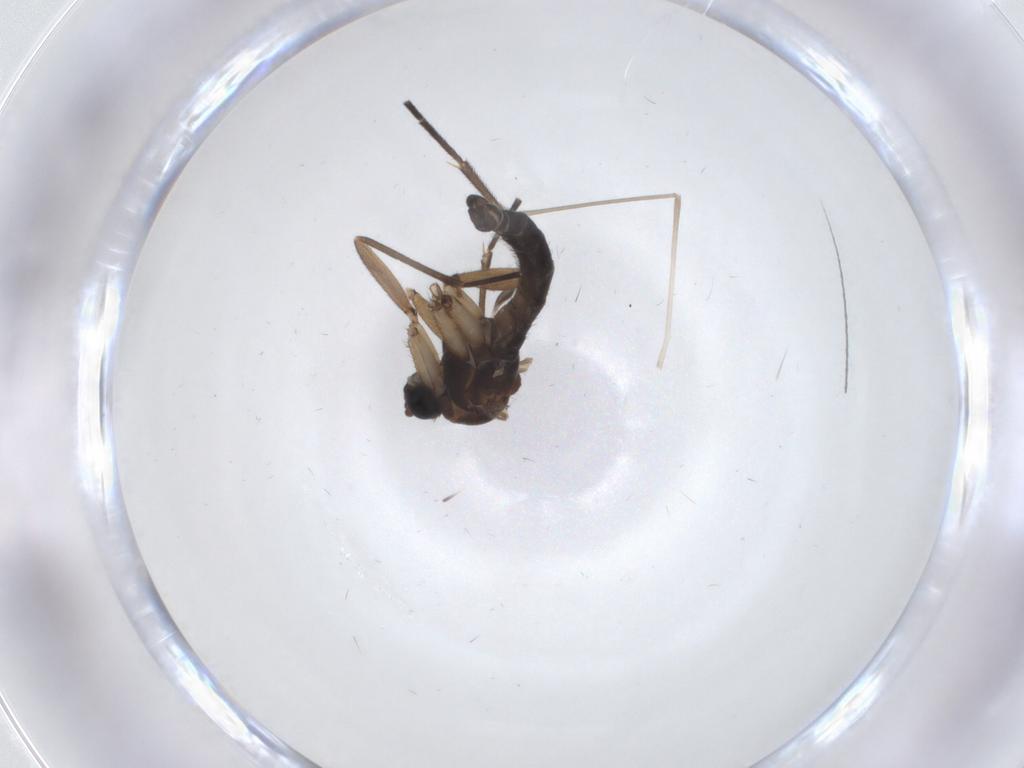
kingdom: Animalia
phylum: Arthropoda
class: Insecta
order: Diptera
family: Sciaridae
